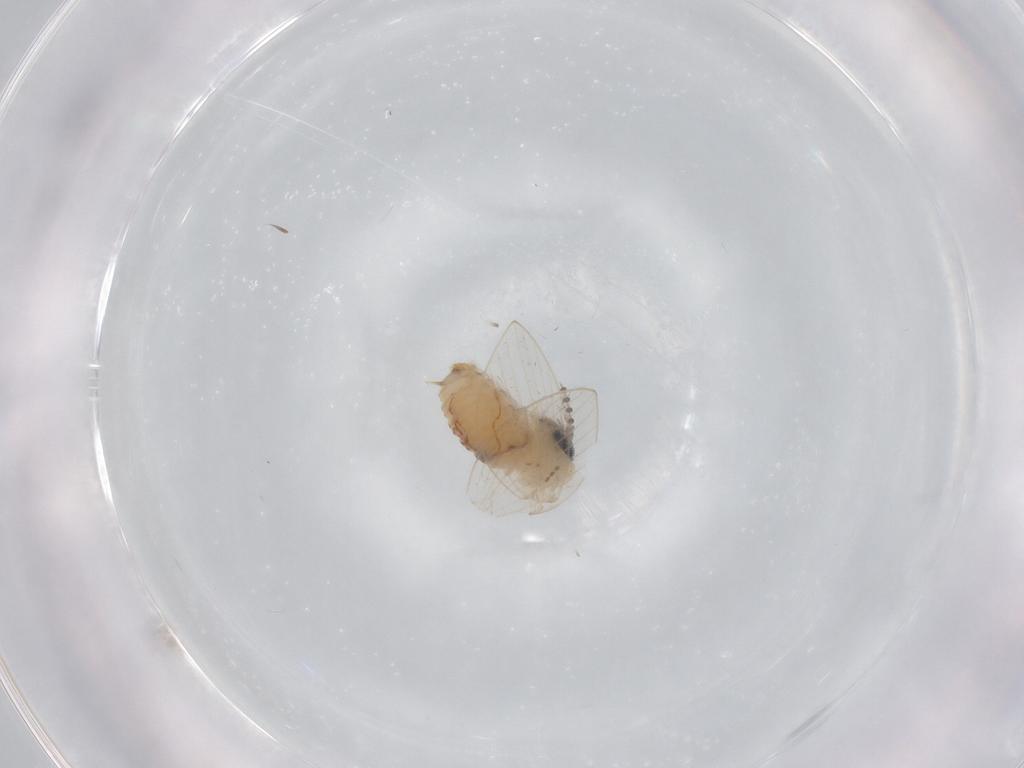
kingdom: Animalia
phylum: Arthropoda
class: Insecta
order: Diptera
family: Psychodidae
